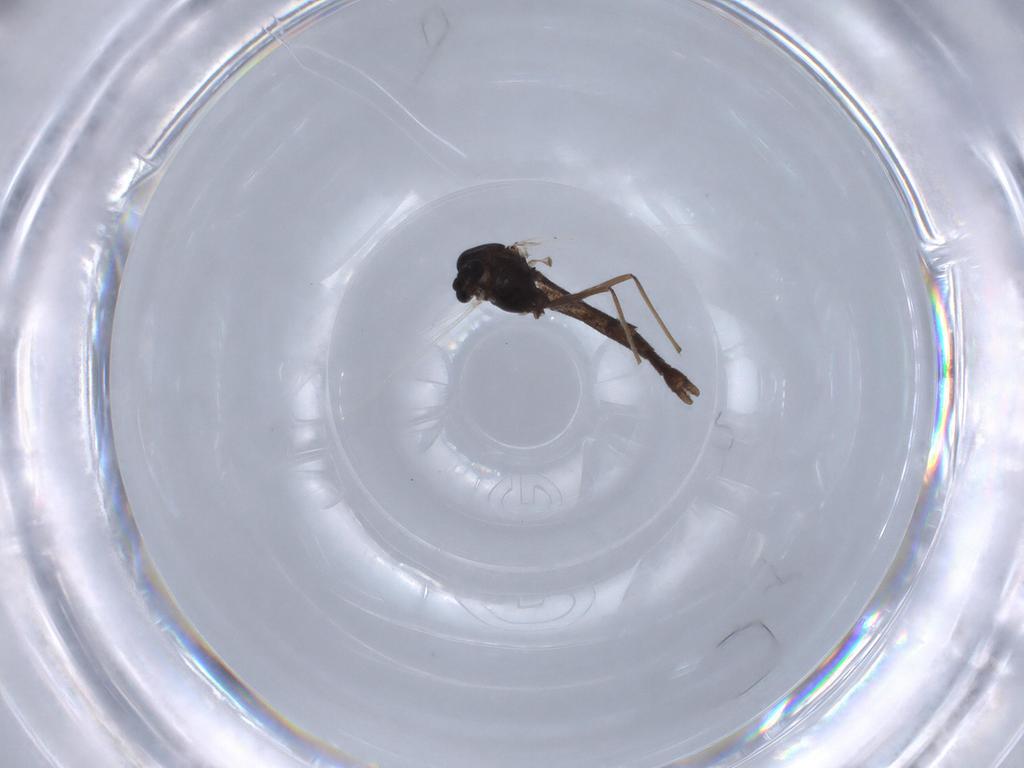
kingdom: Animalia
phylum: Arthropoda
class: Insecta
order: Diptera
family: Chironomidae
